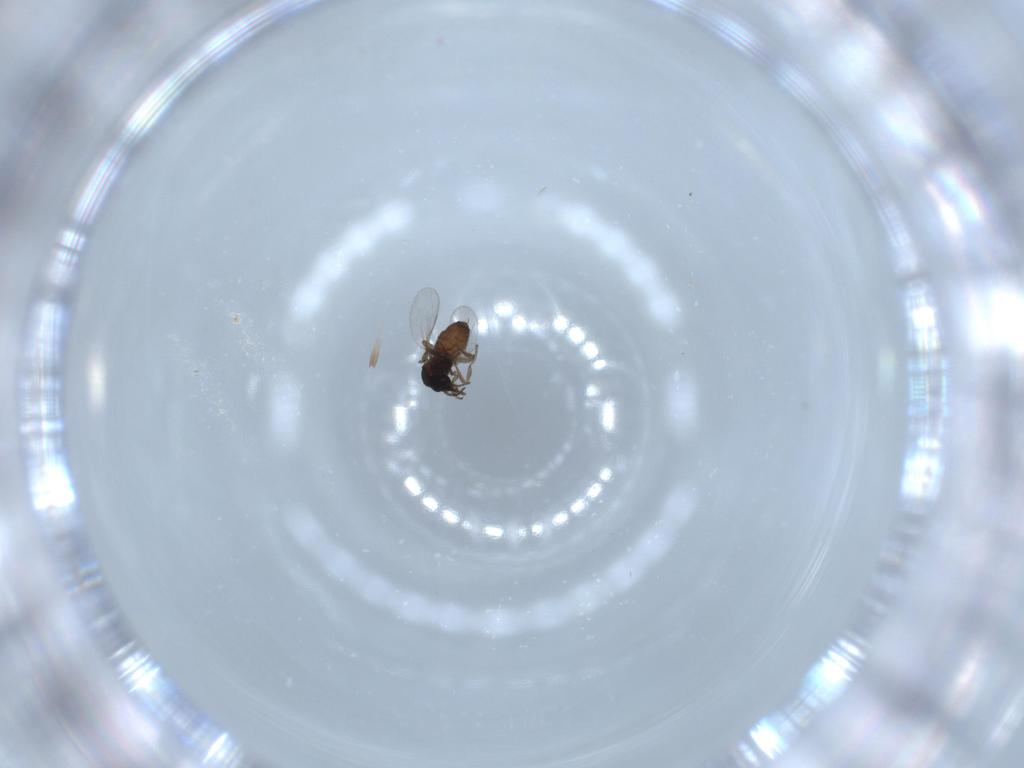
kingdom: Animalia
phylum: Arthropoda
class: Insecta
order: Diptera
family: Ceratopogonidae
